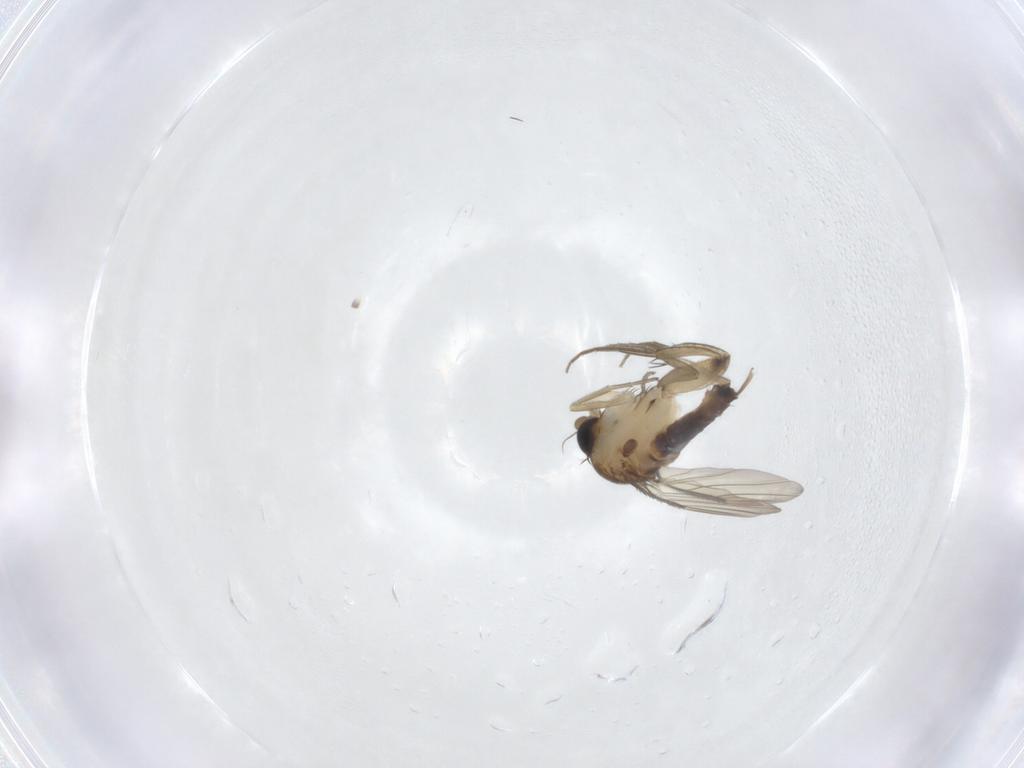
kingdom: Animalia
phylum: Arthropoda
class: Insecta
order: Diptera
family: Phoridae
